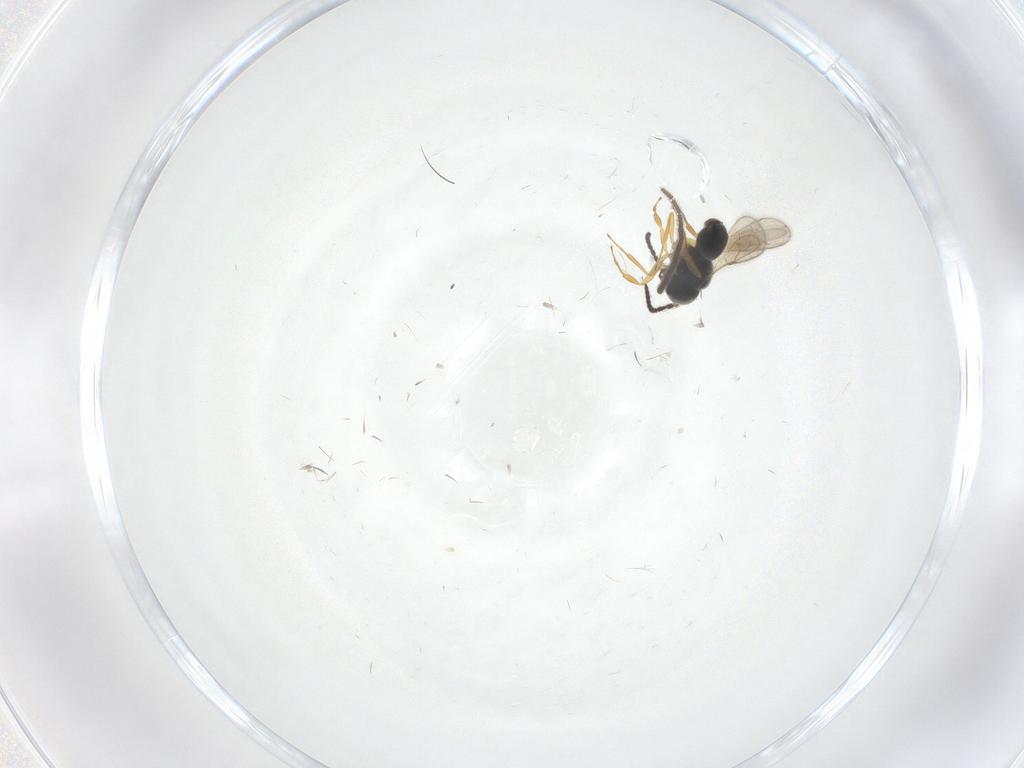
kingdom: Animalia
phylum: Arthropoda
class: Insecta
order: Hymenoptera
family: Scelionidae
